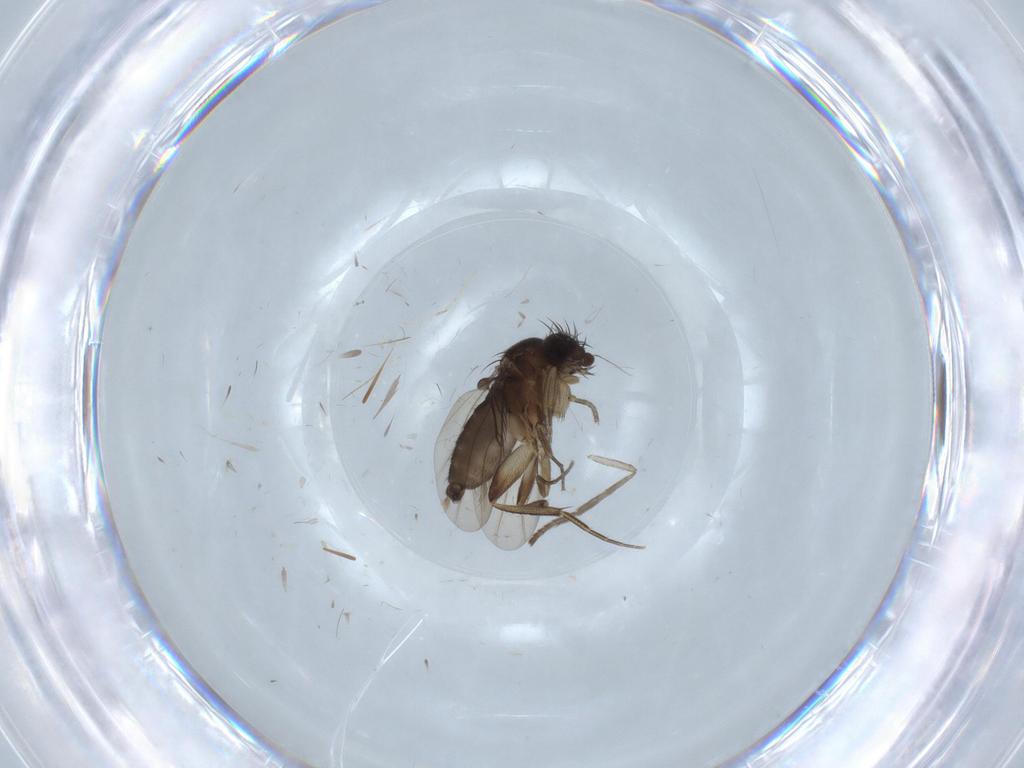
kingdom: Animalia
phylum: Arthropoda
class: Insecta
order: Diptera
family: Phoridae
